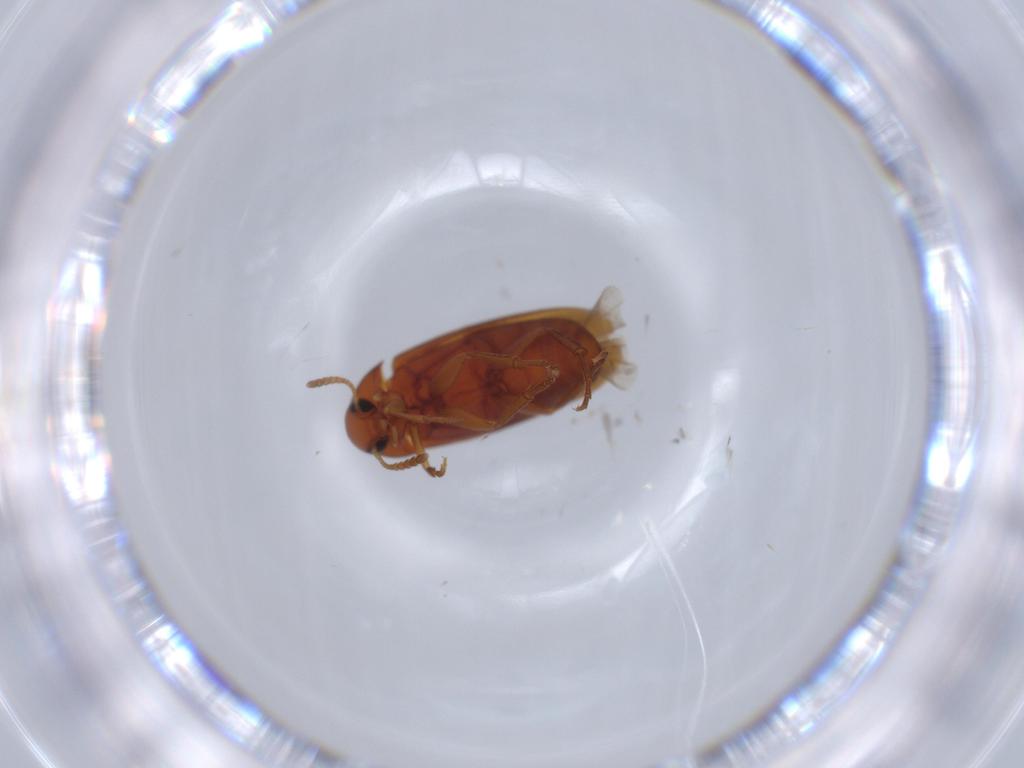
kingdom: Animalia
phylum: Arthropoda
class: Insecta
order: Coleoptera
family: Scraptiidae
